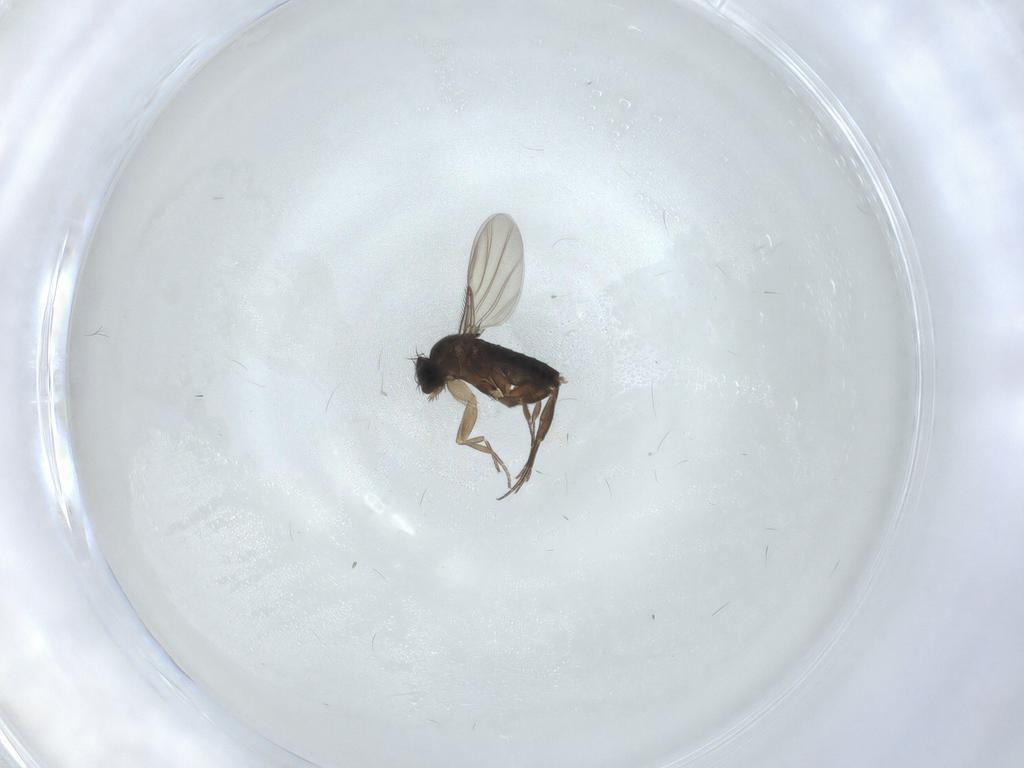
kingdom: Animalia
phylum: Arthropoda
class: Insecta
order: Diptera
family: Phoridae
